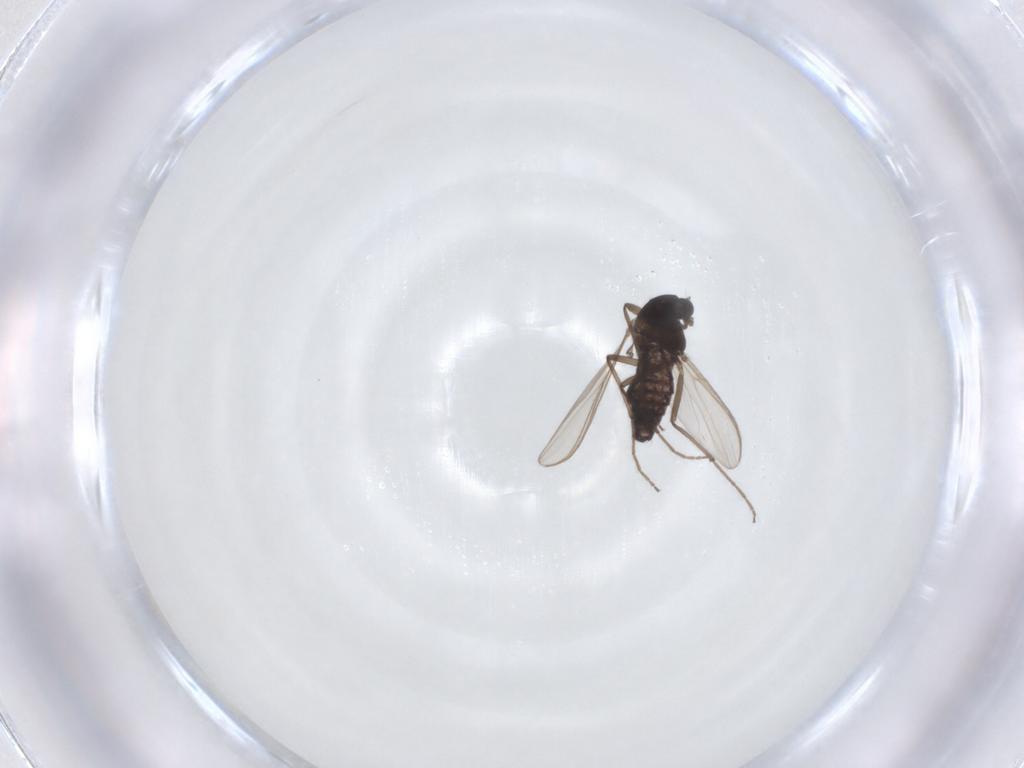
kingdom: Animalia
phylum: Arthropoda
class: Insecta
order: Diptera
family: Chironomidae
